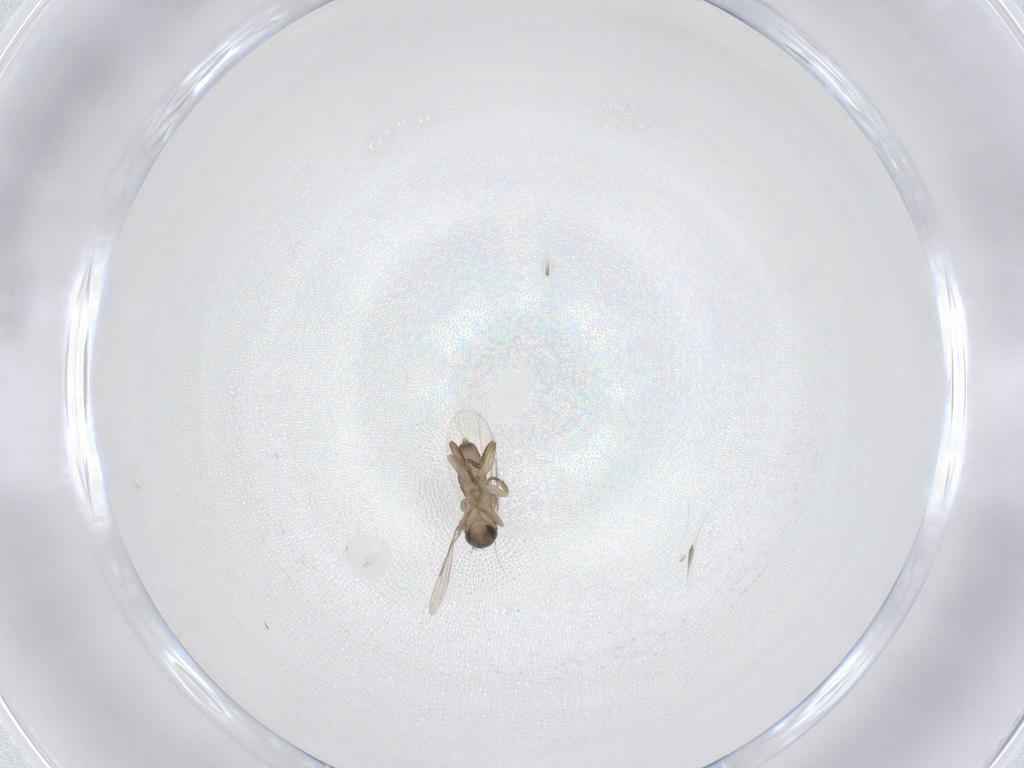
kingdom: Animalia
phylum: Arthropoda
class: Insecta
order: Diptera
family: Phoridae
